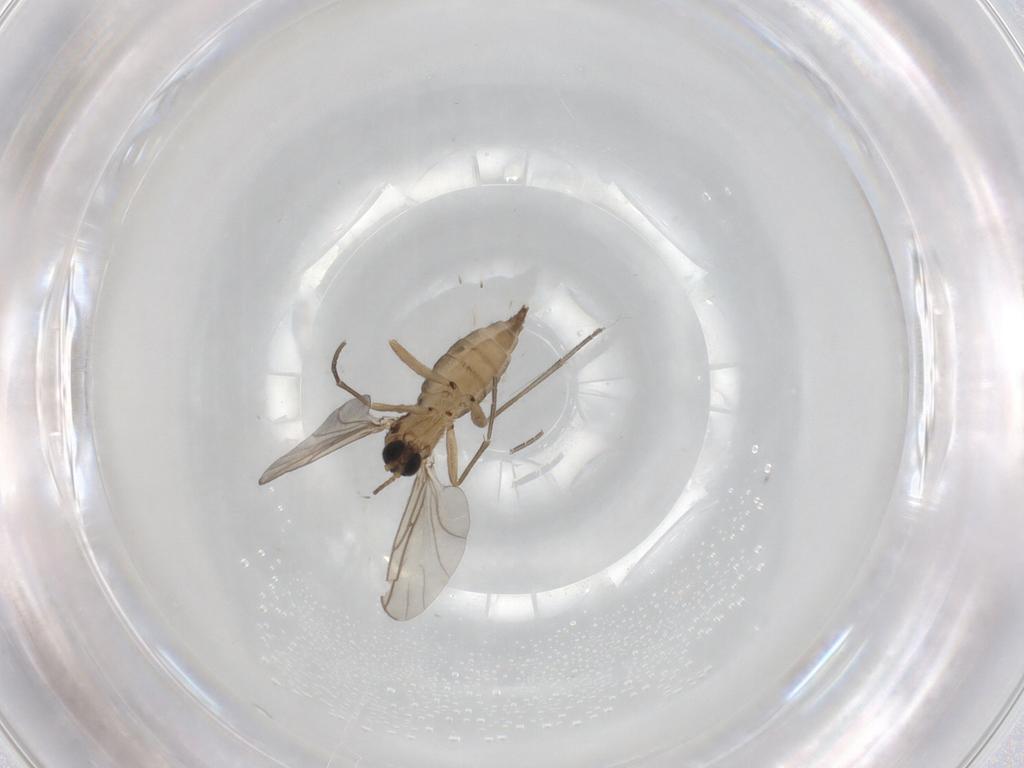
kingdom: Animalia
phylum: Arthropoda
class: Insecta
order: Diptera
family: Sciaridae
